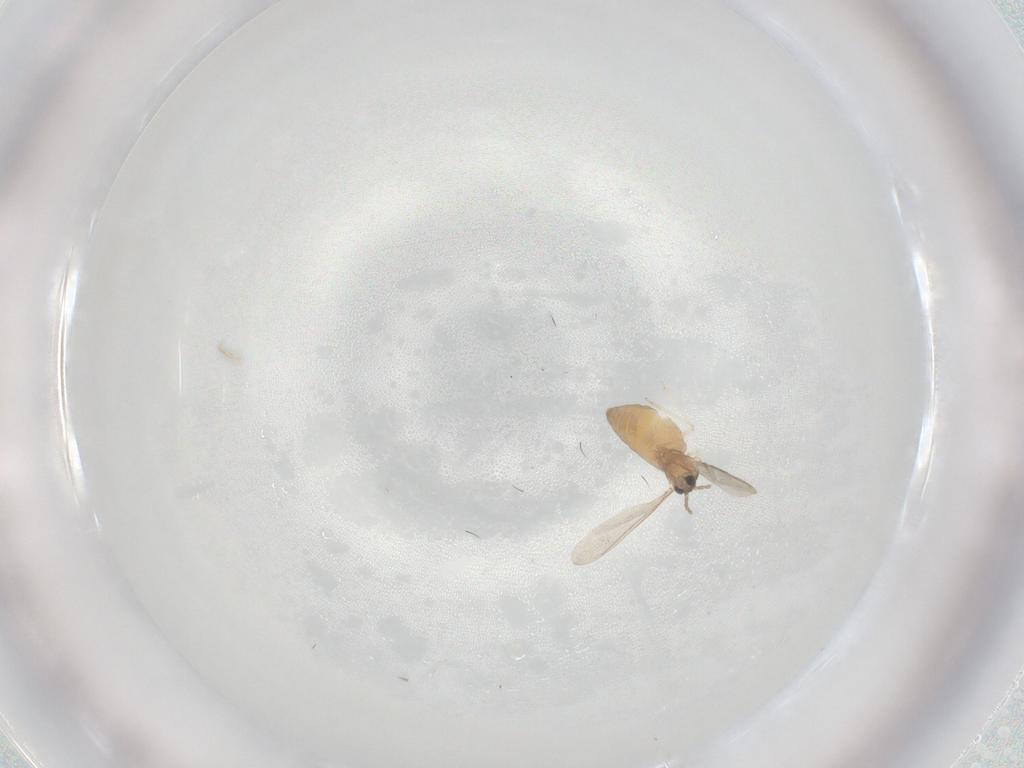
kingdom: Animalia
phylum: Arthropoda
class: Insecta
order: Diptera
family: Cecidomyiidae
